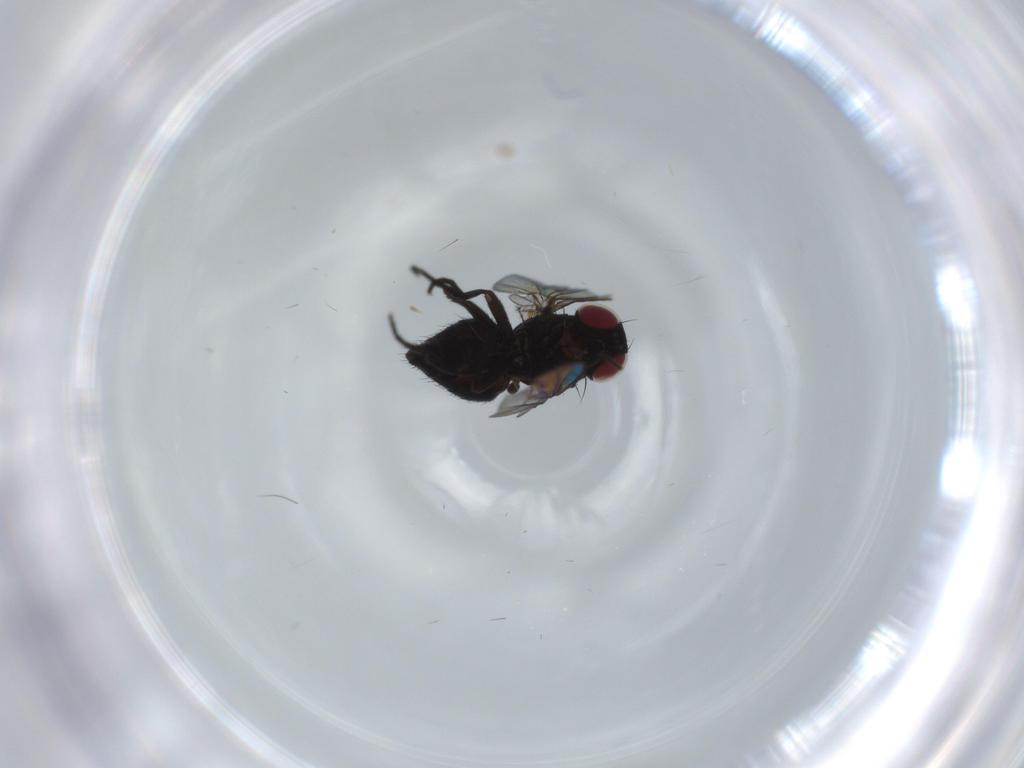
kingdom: Animalia
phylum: Arthropoda
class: Insecta
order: Diptera
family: Agromyzidae
